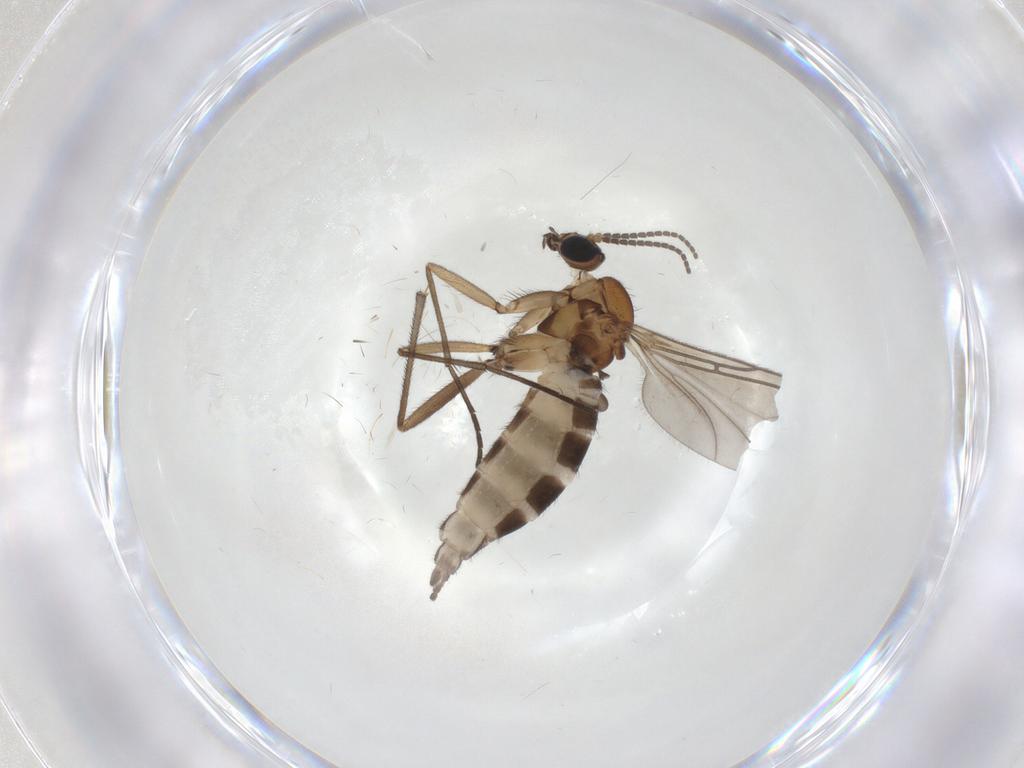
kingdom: Animalia
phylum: Arthropoda
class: Insecta
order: Diptera
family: Sciaridae
